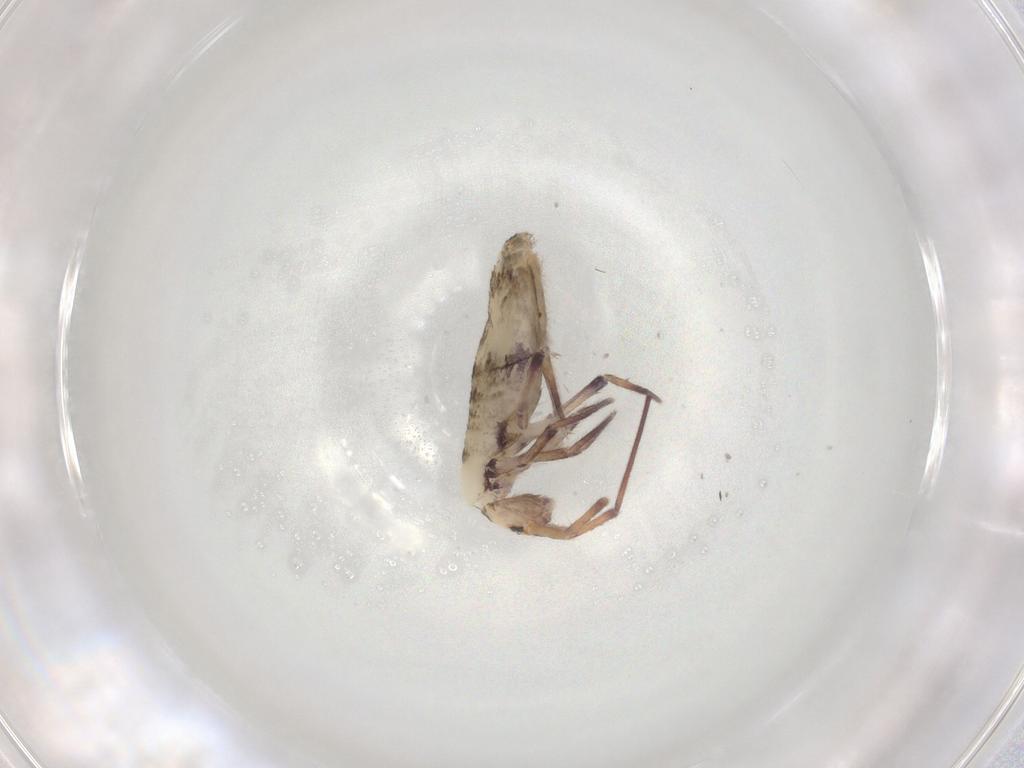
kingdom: Animalia
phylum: Arthropoda
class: Collembola
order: Entomobryomorpha
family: Entomobryidae
